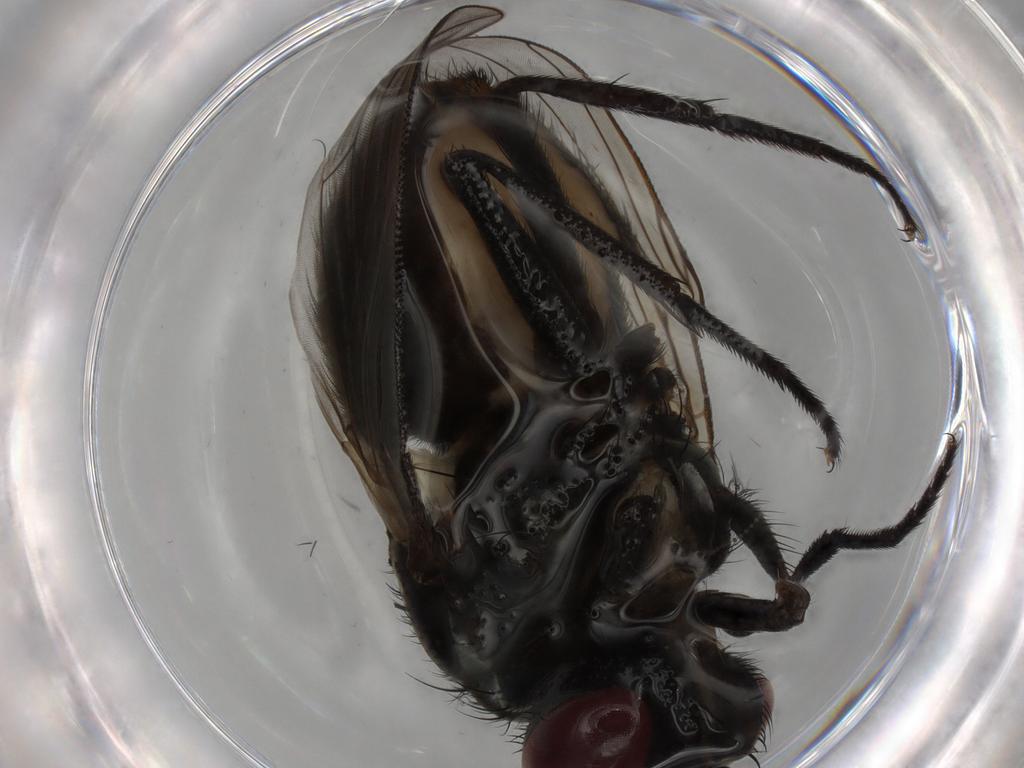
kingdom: Animalia
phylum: Arthropoda
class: Insecta
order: Diptera
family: Muscidae
